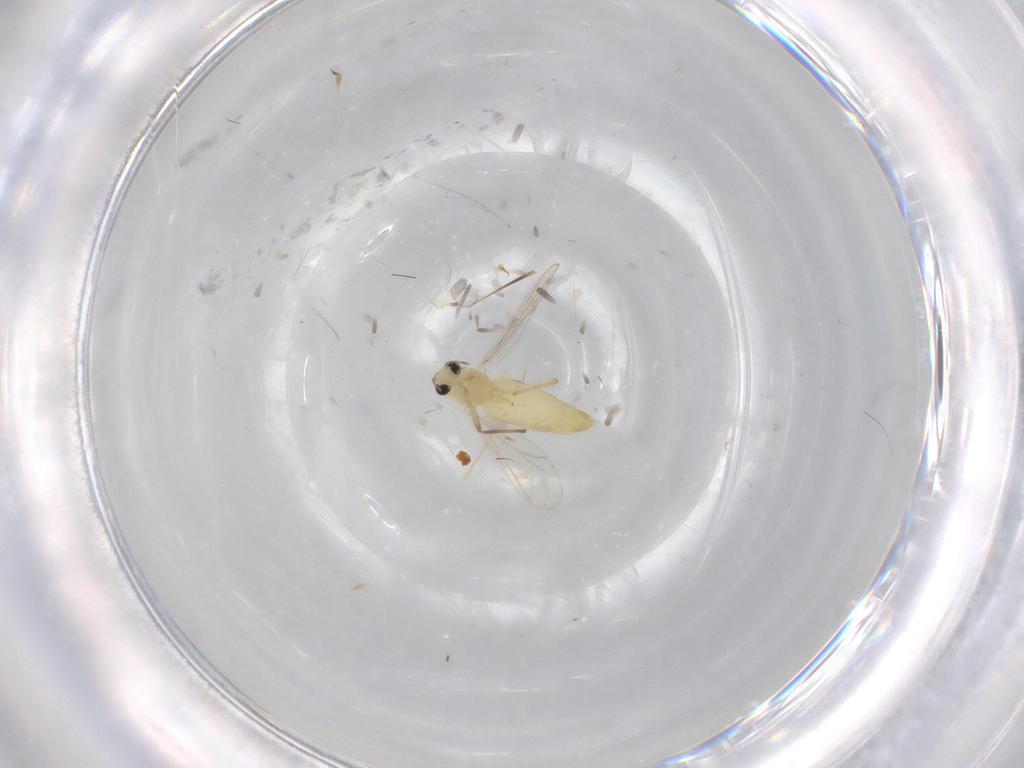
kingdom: Animalia
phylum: Arthropoda
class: Insecta
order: Diptera
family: Chironomidae
